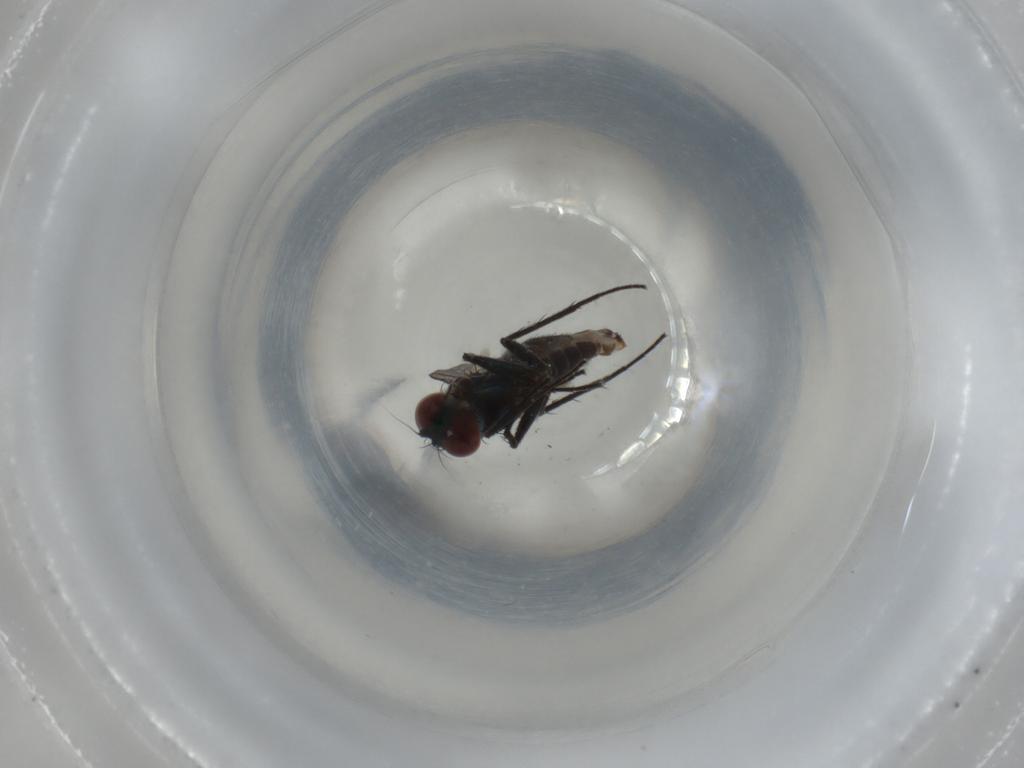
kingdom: Animalia
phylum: Arthropoda
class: Insecta
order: Diptera
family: Dolichopodidae
